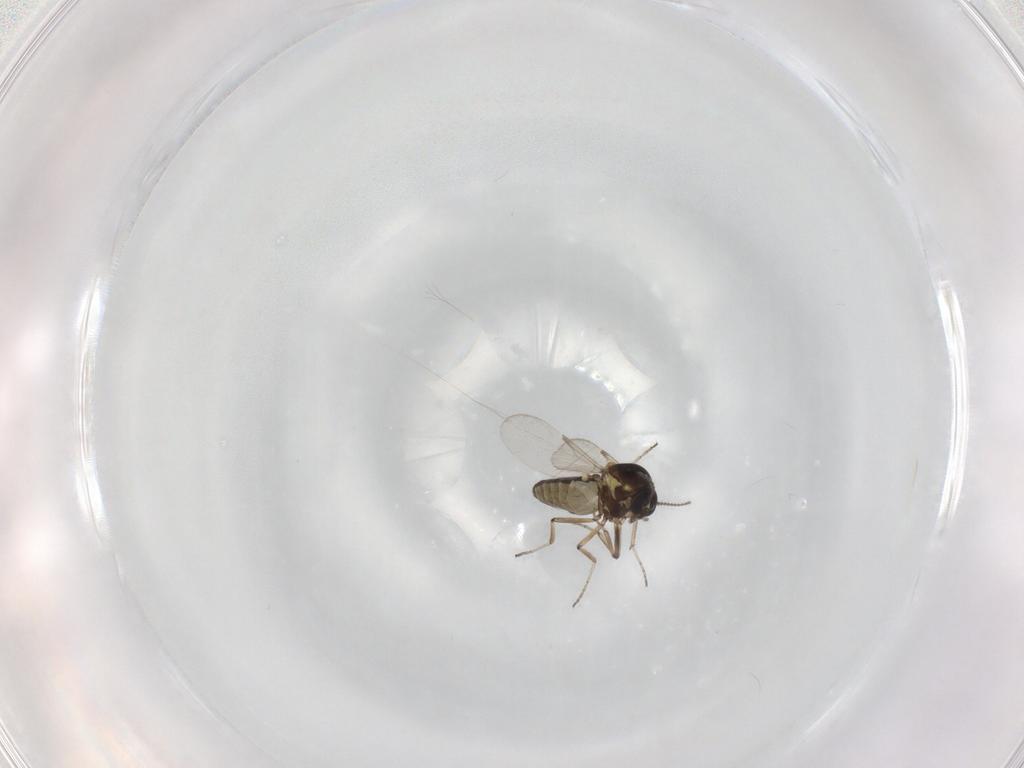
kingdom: Animalia
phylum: Arthropoda
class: Insecta
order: Diptera
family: Ceratopogonidae
